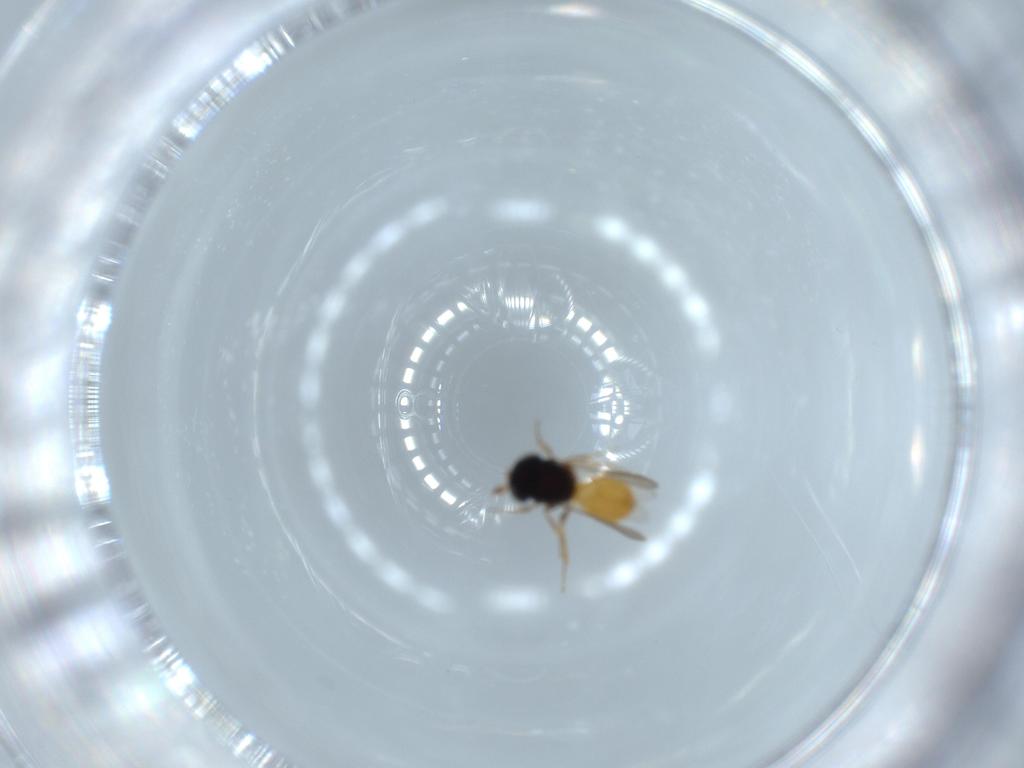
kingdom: Animalia
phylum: Arthropoda
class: Insecta
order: Hymenoptera
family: Scelionidae
